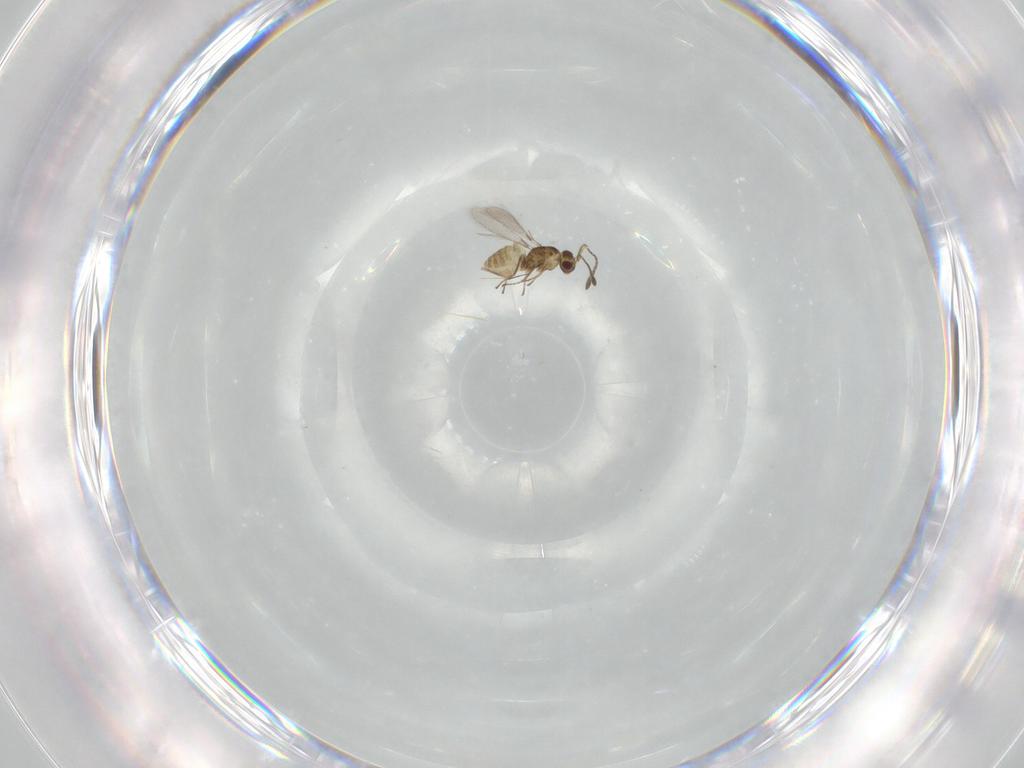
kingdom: Animalia
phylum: Arthropoda
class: Insecta
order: Hymenoptera
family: Mymaridae
